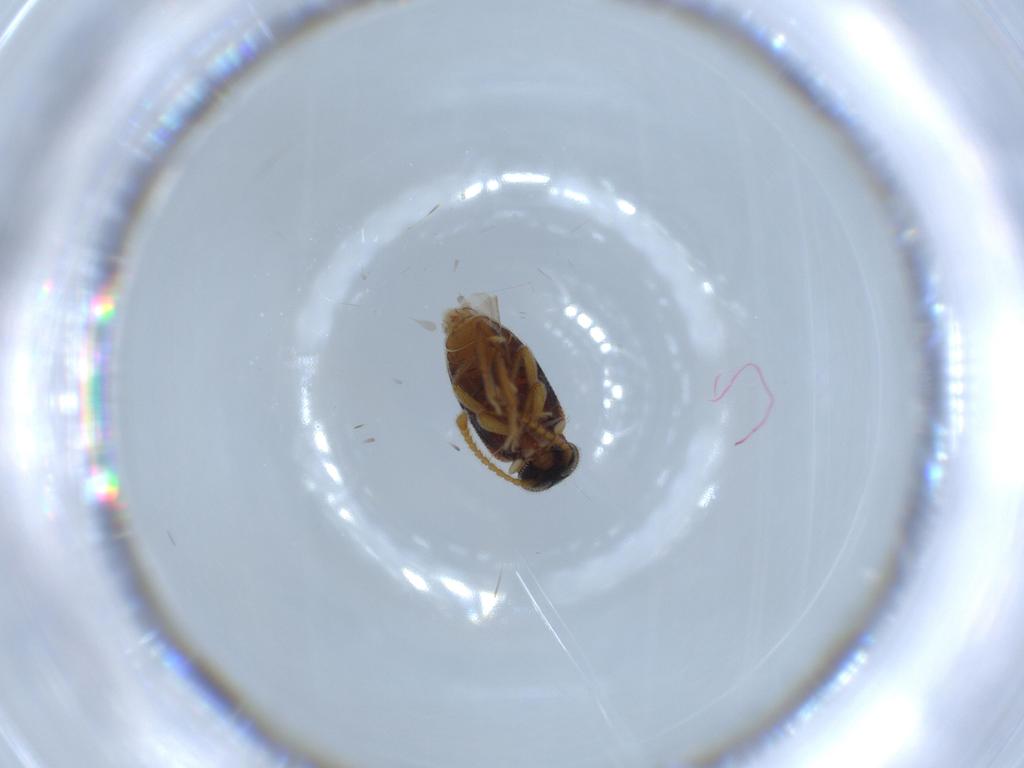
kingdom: Animalia
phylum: Arthropoda
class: Insecta
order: Coleoptera
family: Aderidae
